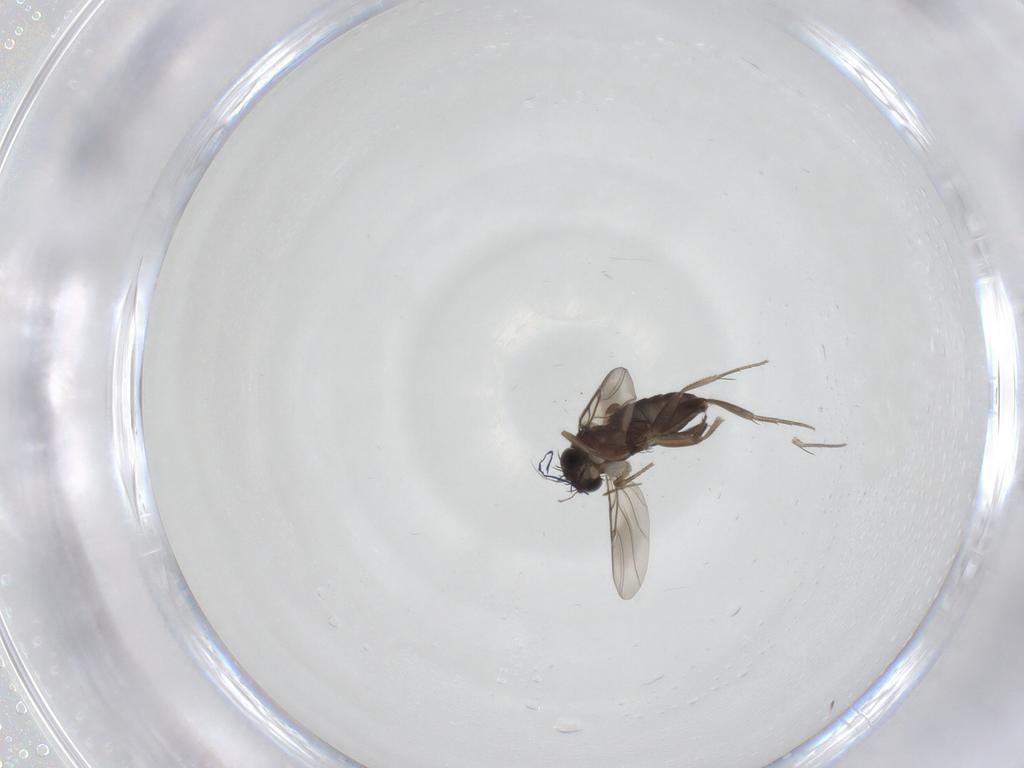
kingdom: Animalia
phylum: Arthropoda
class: Insecta
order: Diptera
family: Phoridae
